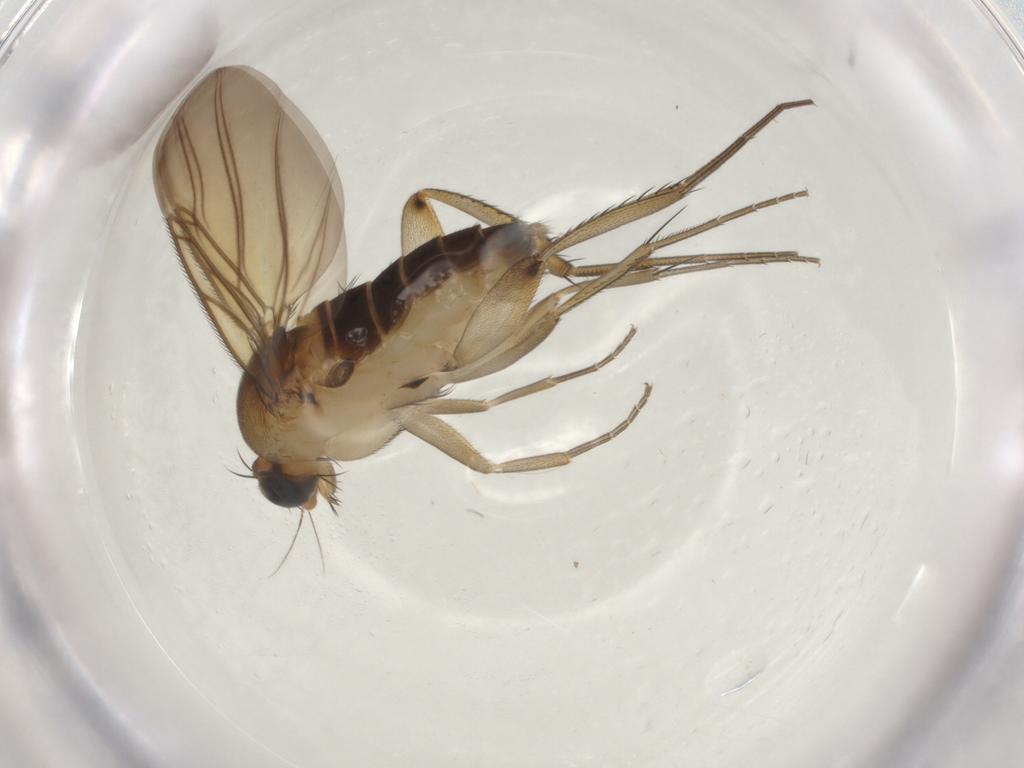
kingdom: Animalia
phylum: Arthropoda
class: Insecta
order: Diptera
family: Phoridae
